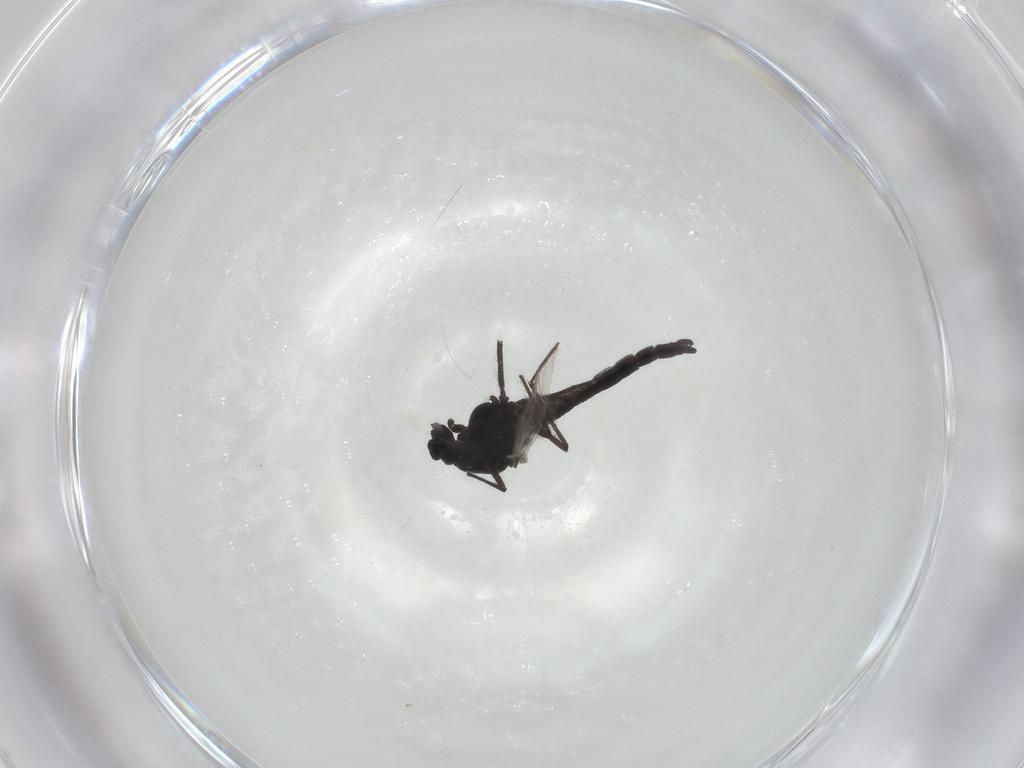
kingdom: Animalia
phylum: Arthropoda
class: Insecta
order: Diptera
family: Chironomidae
